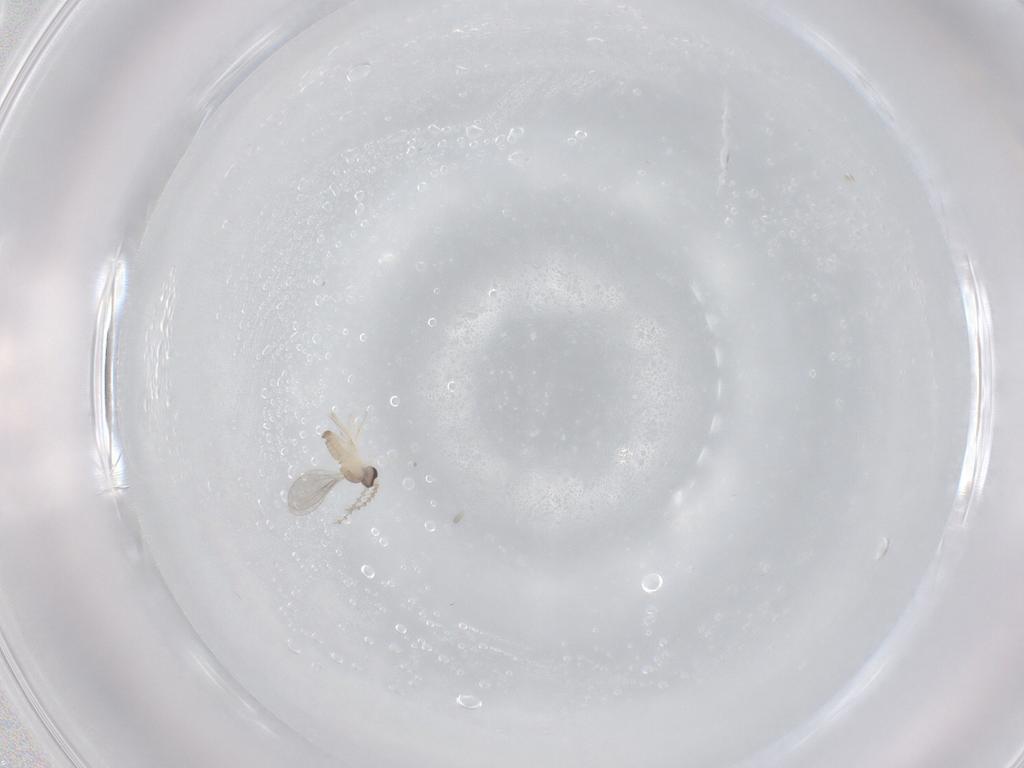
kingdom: Animalia
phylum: Arthropoda
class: Insecta
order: Diptera
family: Cecidomyiidae
